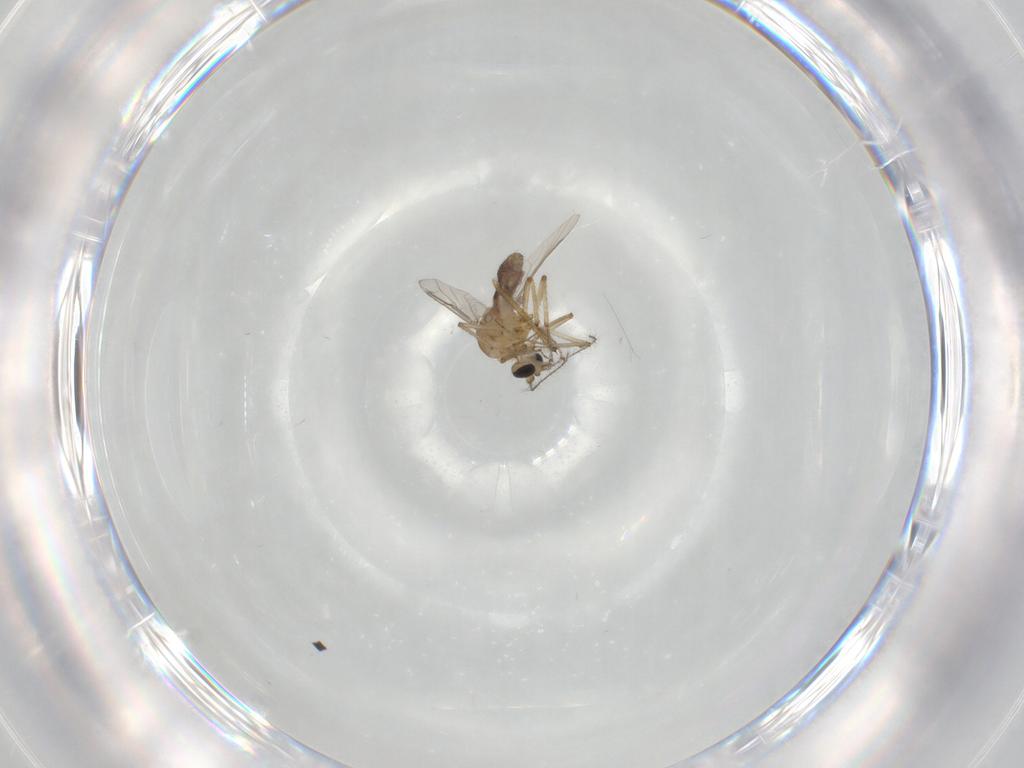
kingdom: Animalia
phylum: Arthropoda
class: Insecta
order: Diptera
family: Chironomidae
